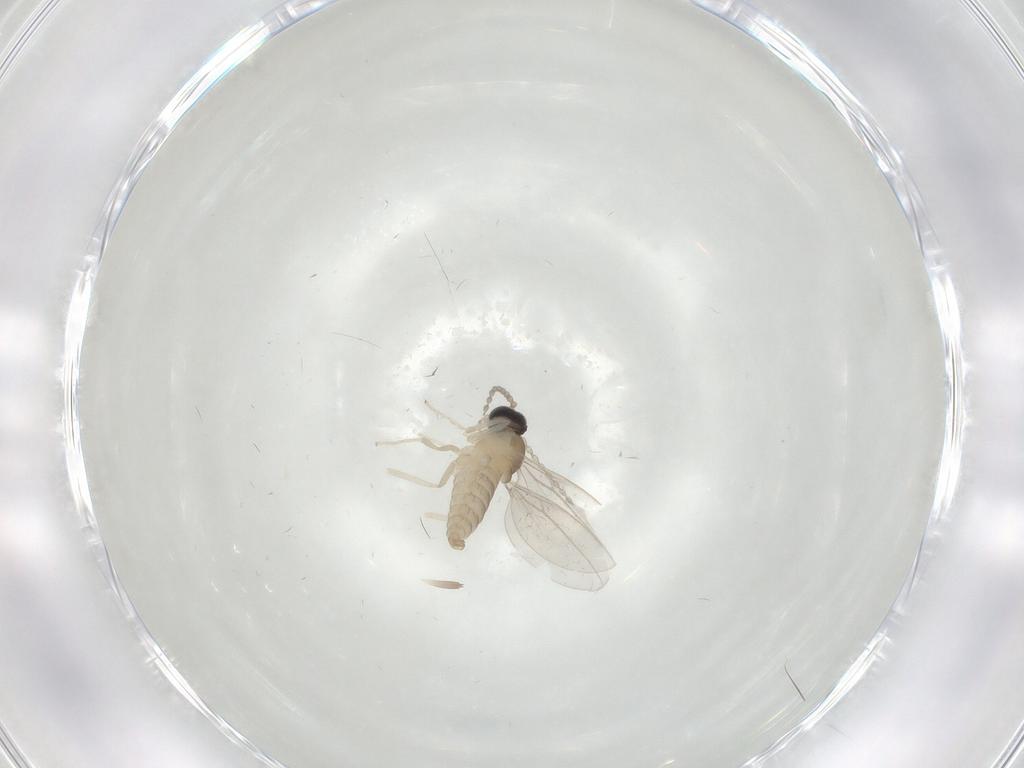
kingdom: Animalia
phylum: Arthropoda
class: Insecta
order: Diptera
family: Cecidomyiidae
